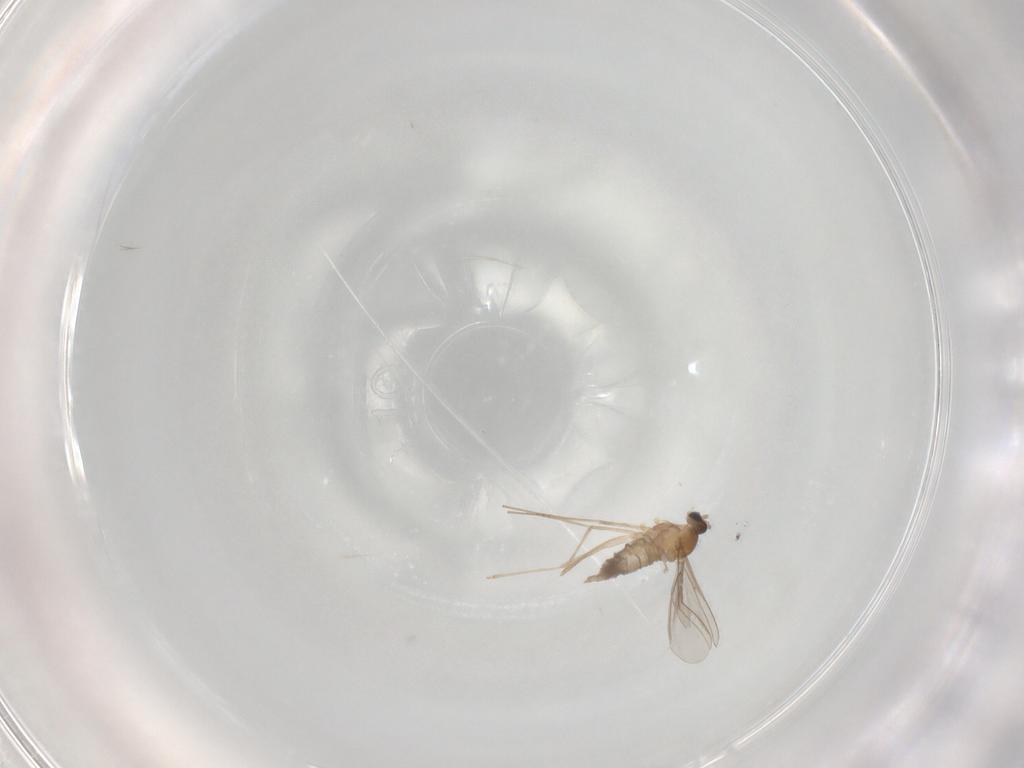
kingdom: Animalia
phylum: Arthropoda
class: Insecta
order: Diptera
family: Cecidomyiidae
